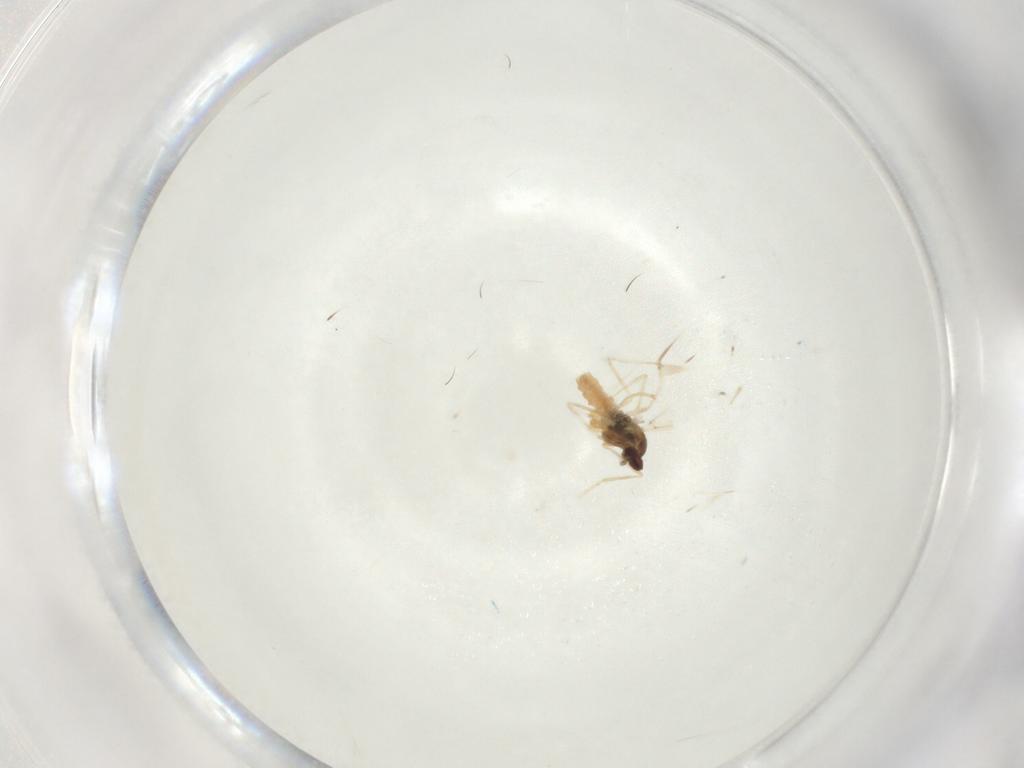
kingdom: Animalia
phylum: Arthropoda
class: Insecta
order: Diptera
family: Cecidomyiidae
